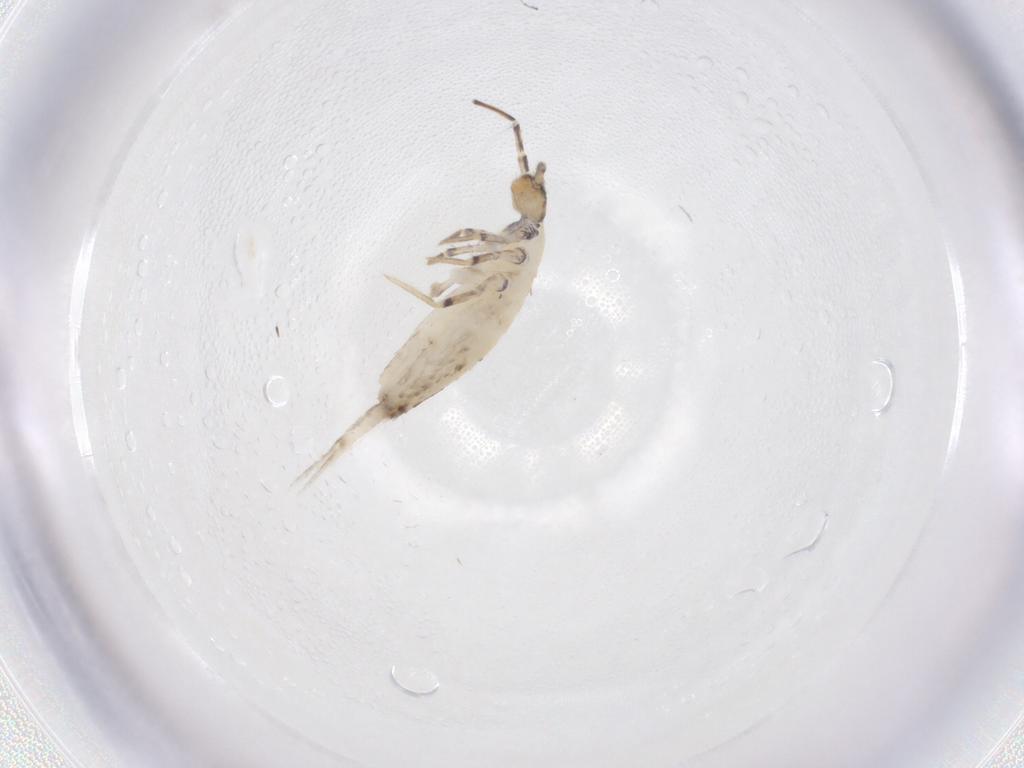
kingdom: Animalia
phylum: Arthropoda
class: Collembola
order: Entomobryomorpha
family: Entomobryidae
